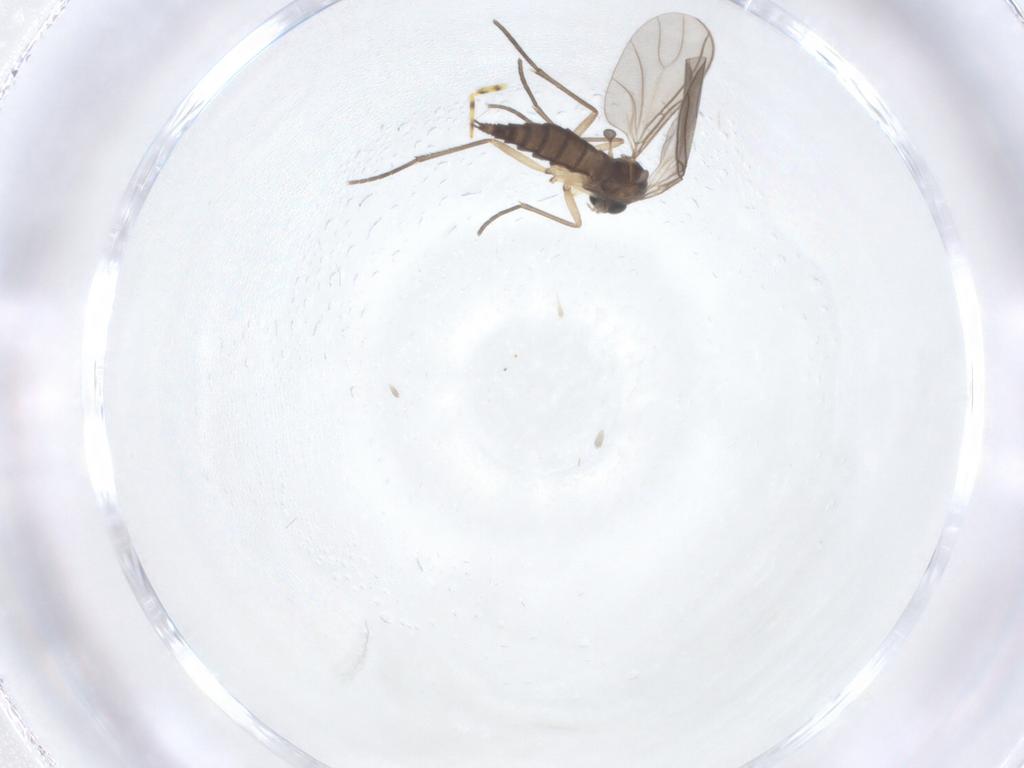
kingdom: Animalia
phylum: Arthropoda
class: Insecta
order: Diptera
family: Sciaridae
